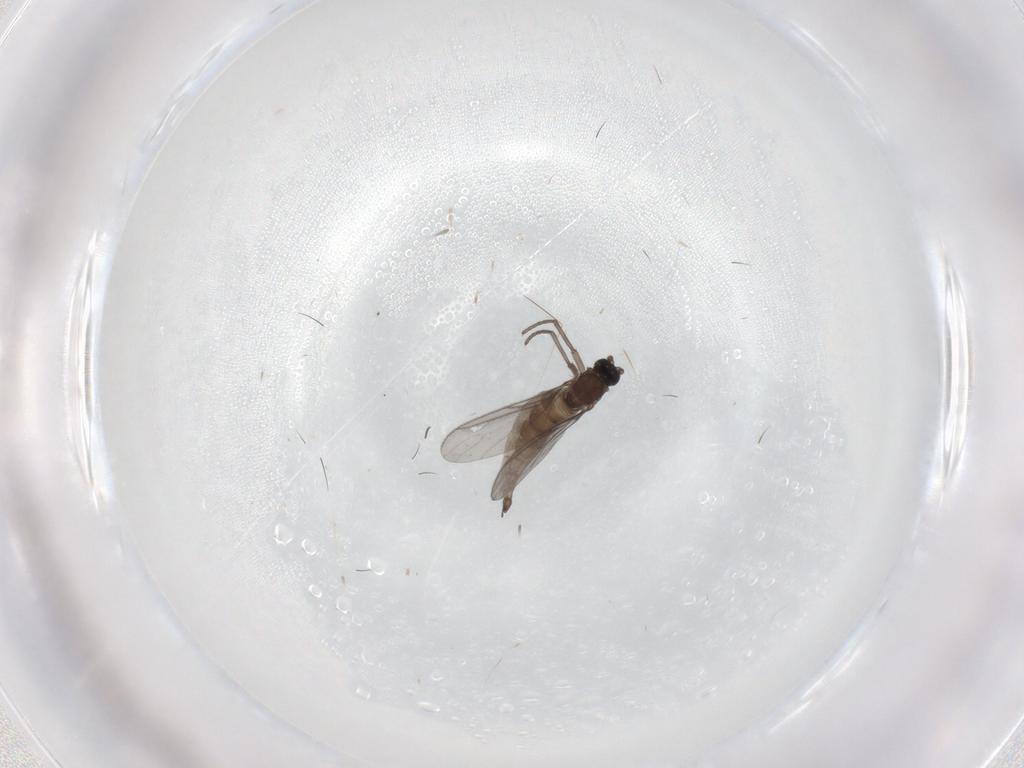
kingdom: Animalia
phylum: Arthropoda
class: Insecta
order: Diptera
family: Sciaridae
